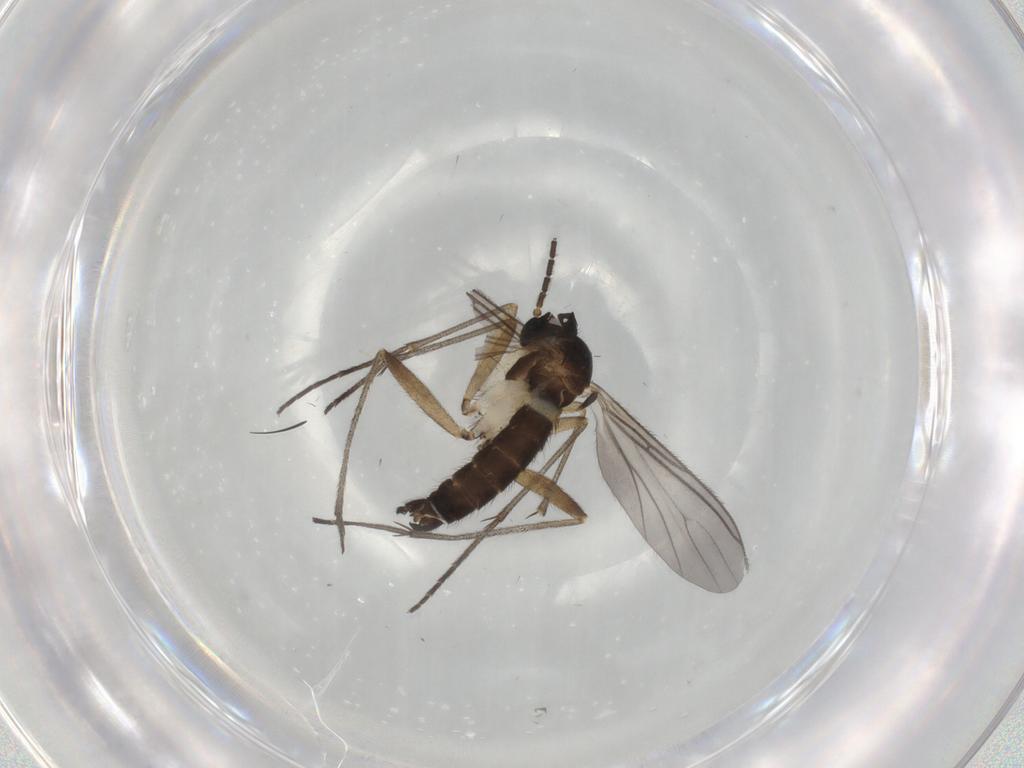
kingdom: Animalia
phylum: Arthropoda
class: Insecta
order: Diptera
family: Sciaridae
